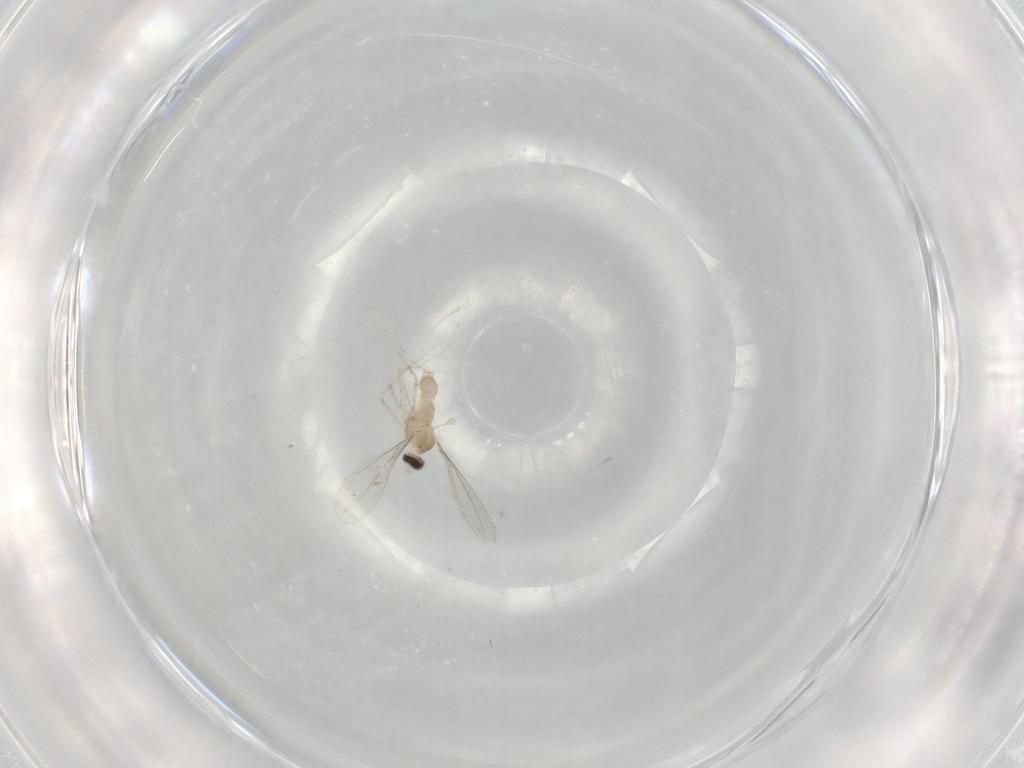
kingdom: Animalia
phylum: Arthropoda
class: Insecta
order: Diptera
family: Cecidomyiidae
